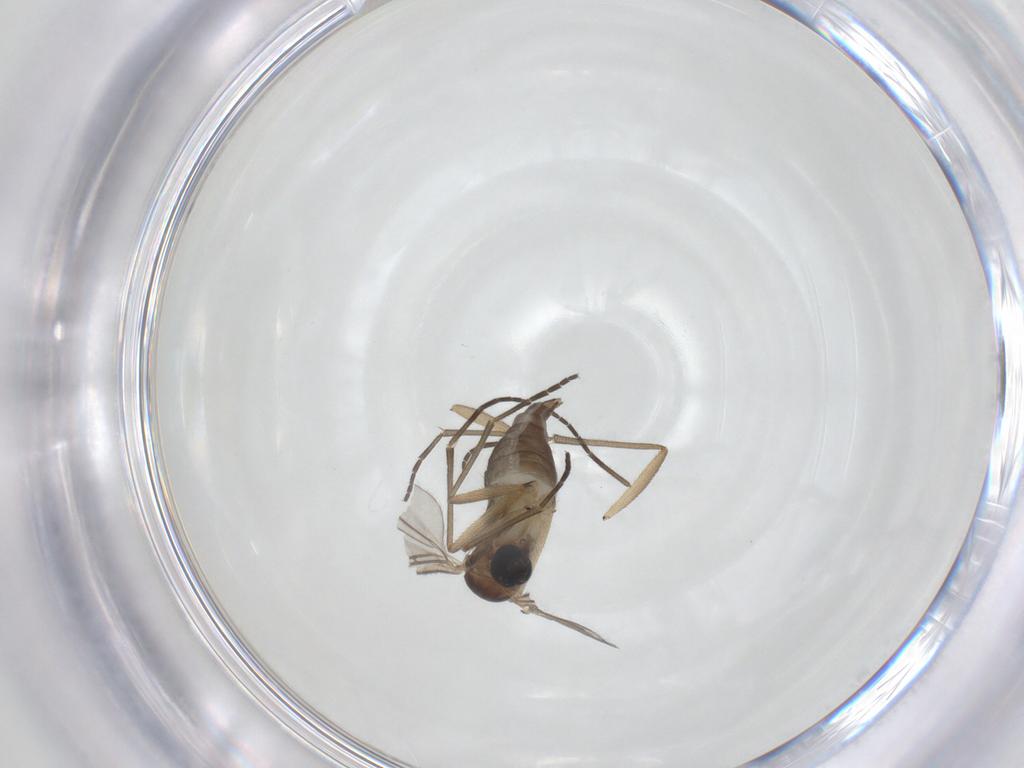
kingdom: Animalia
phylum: Arthropoda
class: Insecta
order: Diptera
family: Sciaridae
